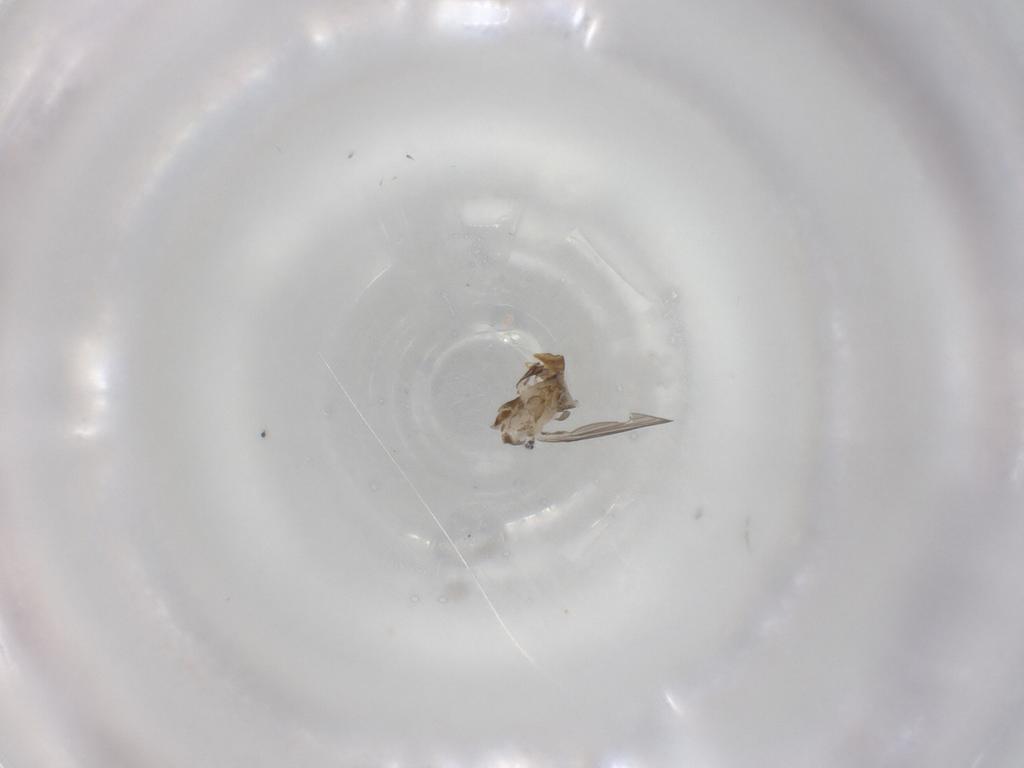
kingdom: Animalia
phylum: Arthropoda
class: Insecta
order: Diptera
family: Psychodidae
